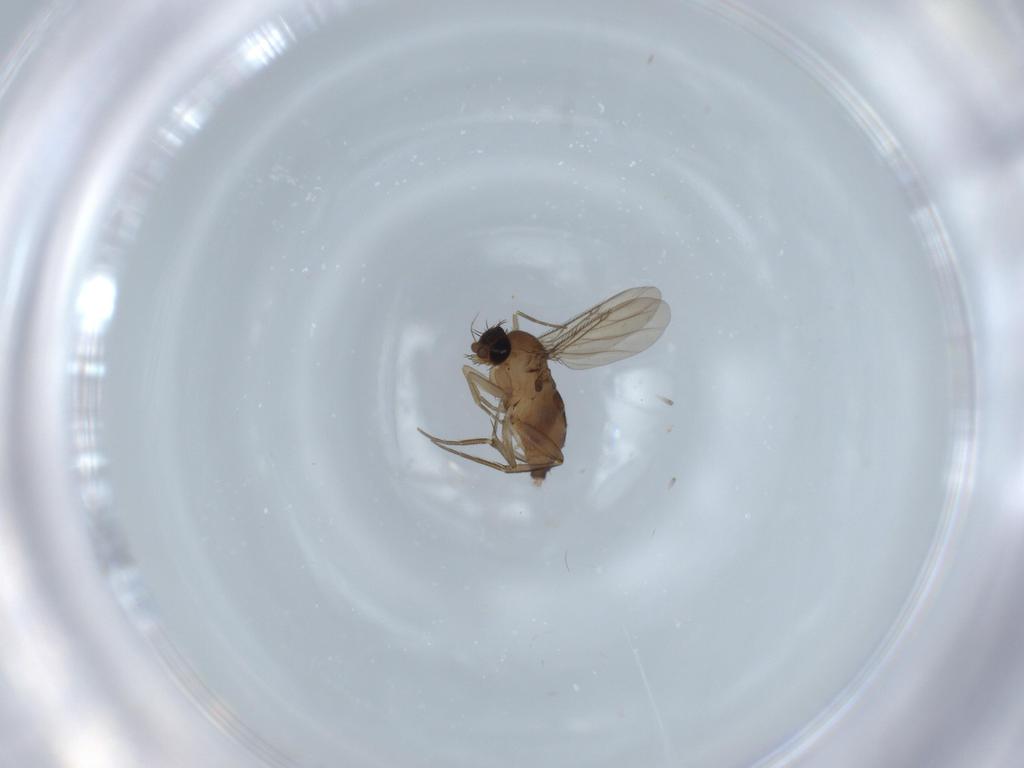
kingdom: Animalia
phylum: Arthropoda
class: Insecta
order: Diptera
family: Phoridae
